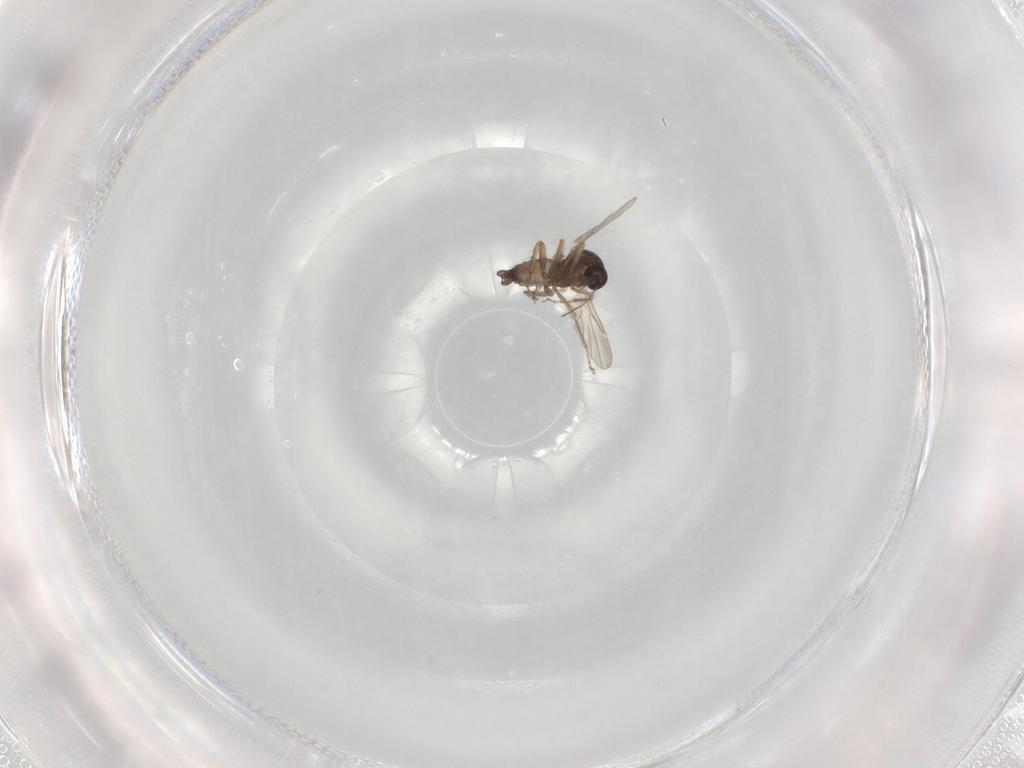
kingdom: Animalia
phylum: Arthropoda
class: Insecta
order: Diptera
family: Ceratopogonidae
